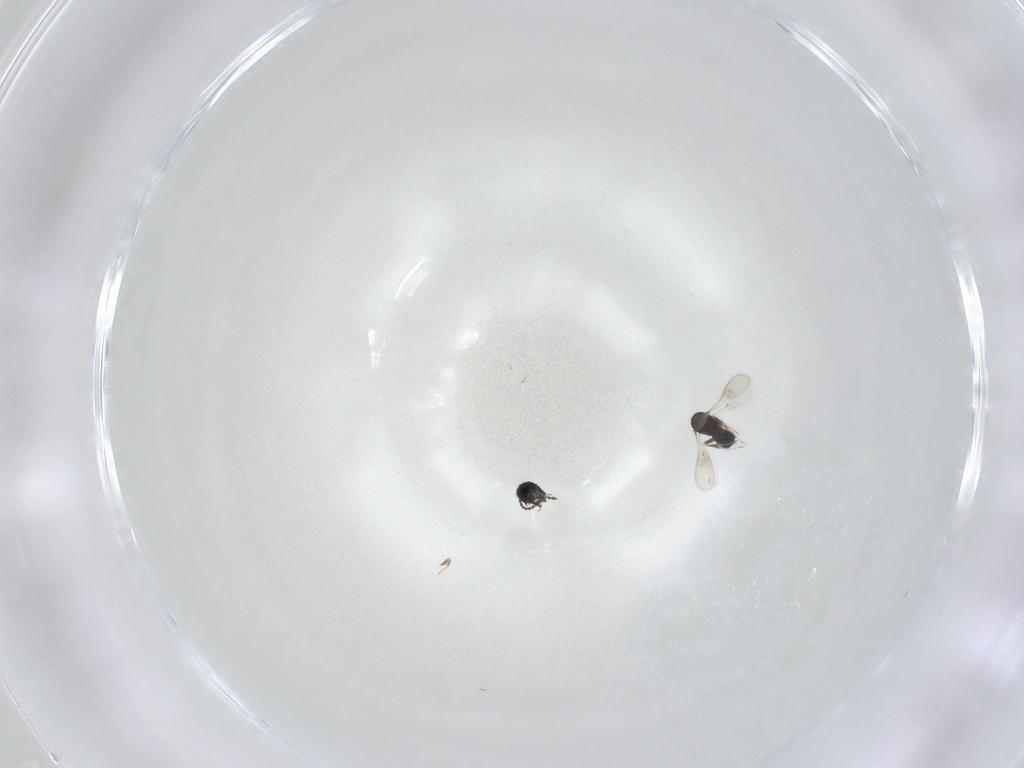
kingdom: Animalia
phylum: Arthropoda
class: Insecta
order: Hymenoptera
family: Scelionidae
